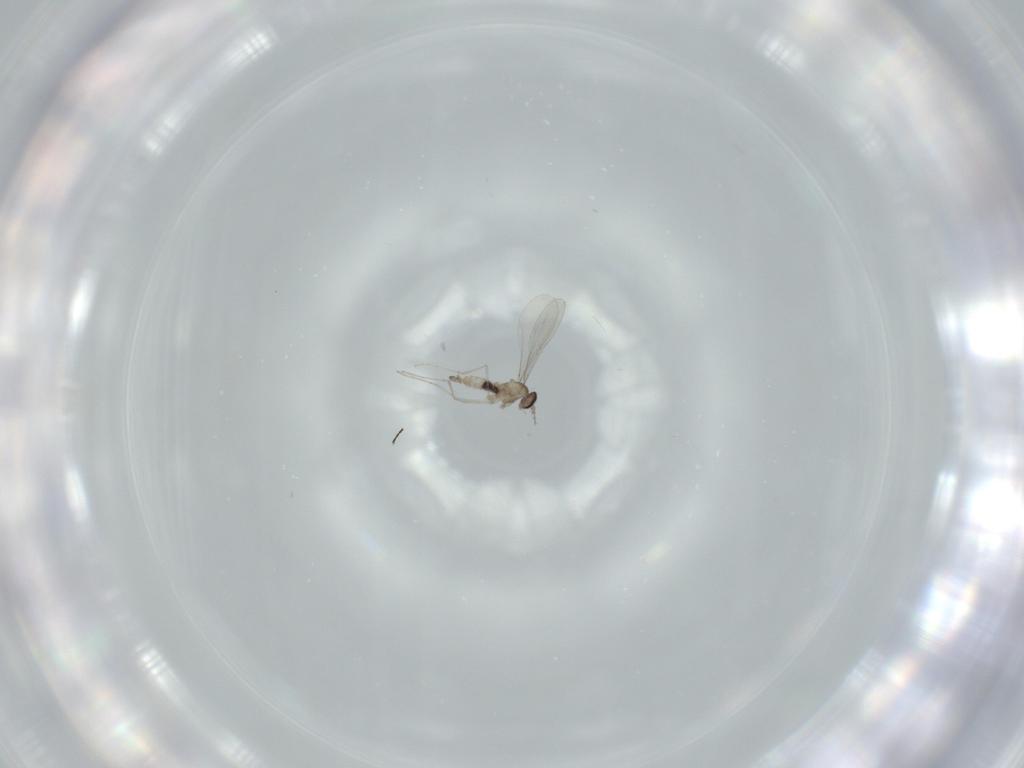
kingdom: Animalia
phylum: Arthropoda
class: Insecta
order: Diptera
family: Cecidomyiidae
